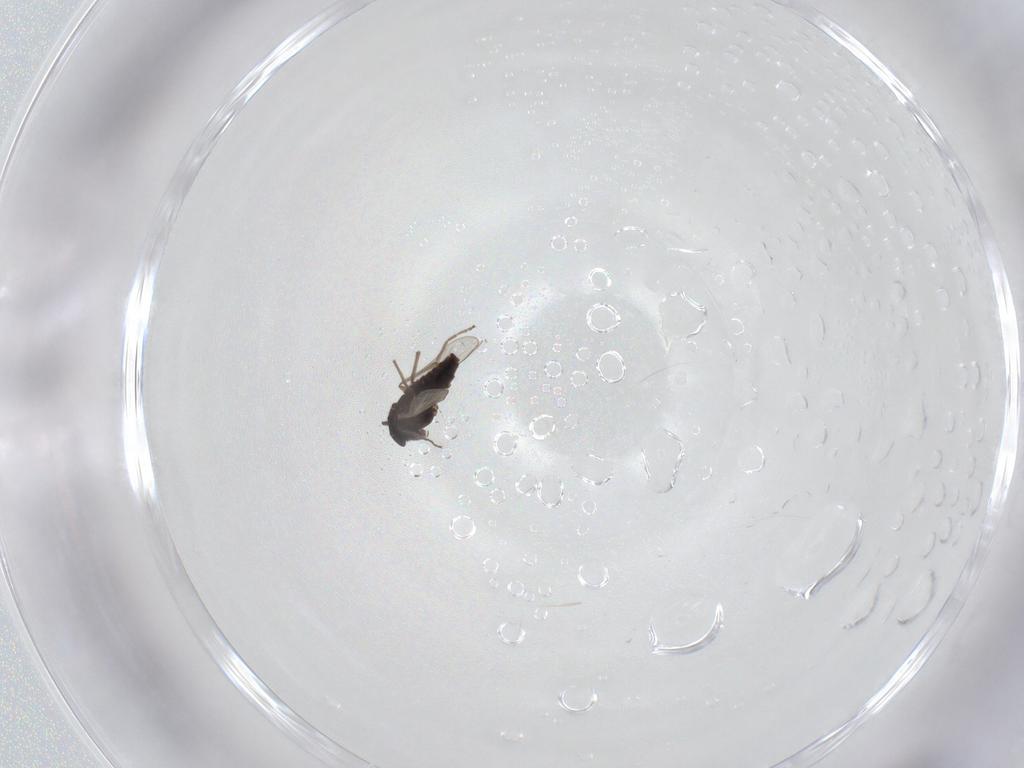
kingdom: Animalia
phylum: Arthropoda
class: Insecta
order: Diptera
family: Chironomidae
